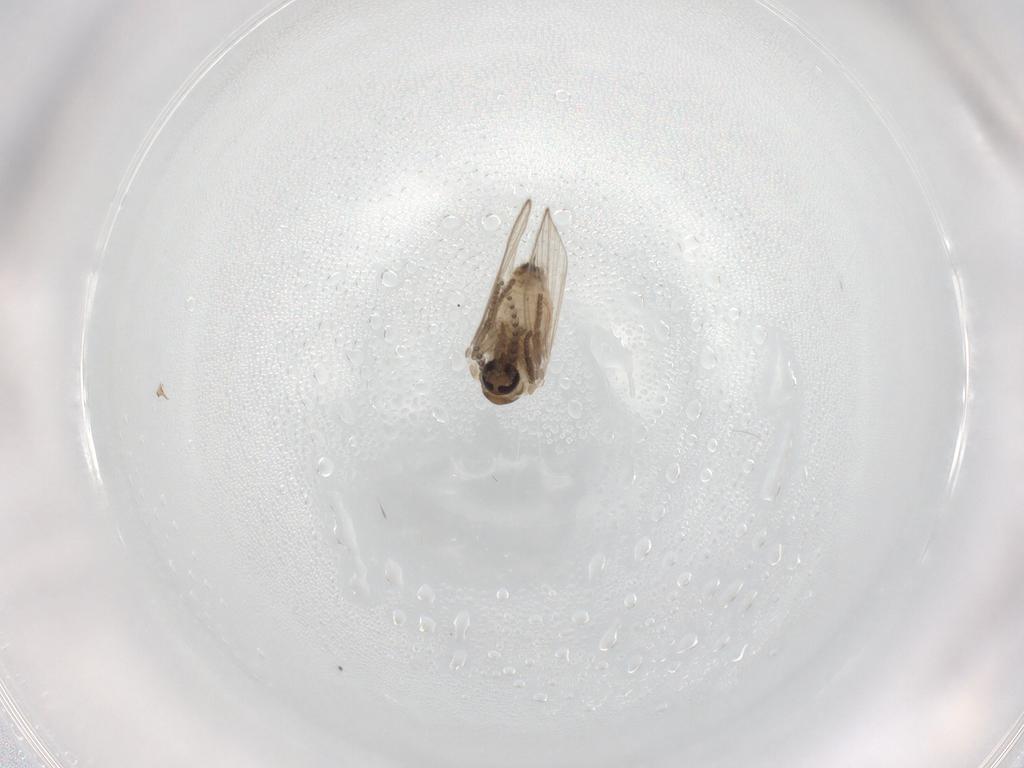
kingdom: Animalia
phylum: Arthropoda
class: Insecta
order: Diptera
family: Psychodidae
